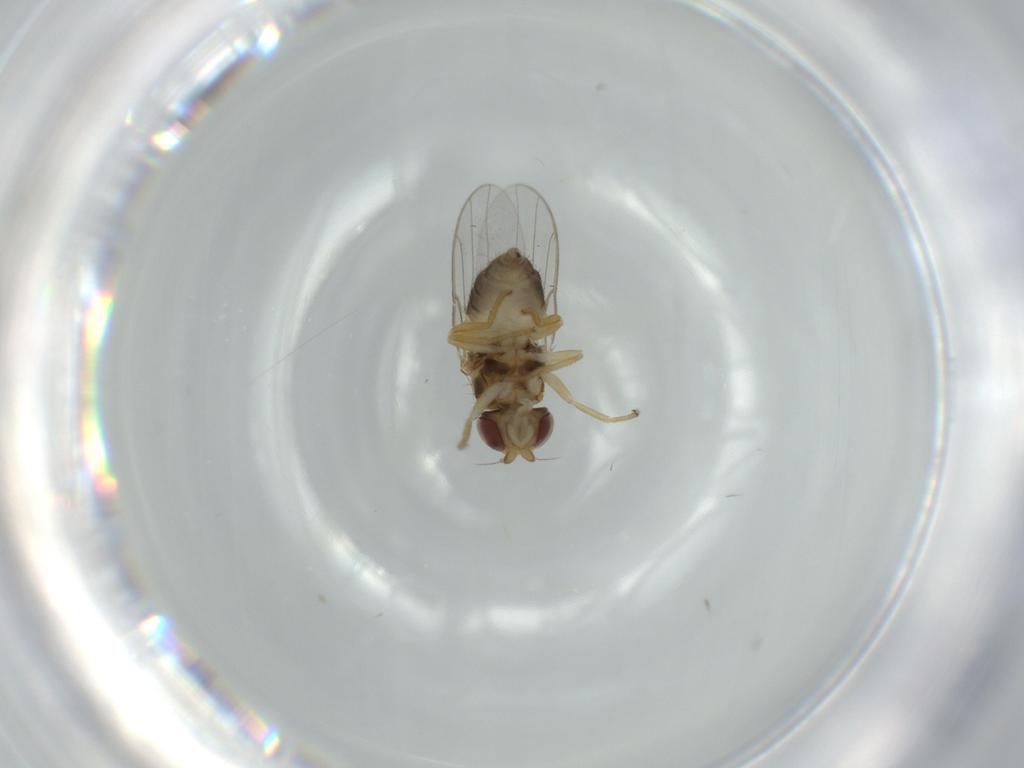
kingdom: Animalia
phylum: Arthropoda
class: Insecta
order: Diptera
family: Chloropidae
